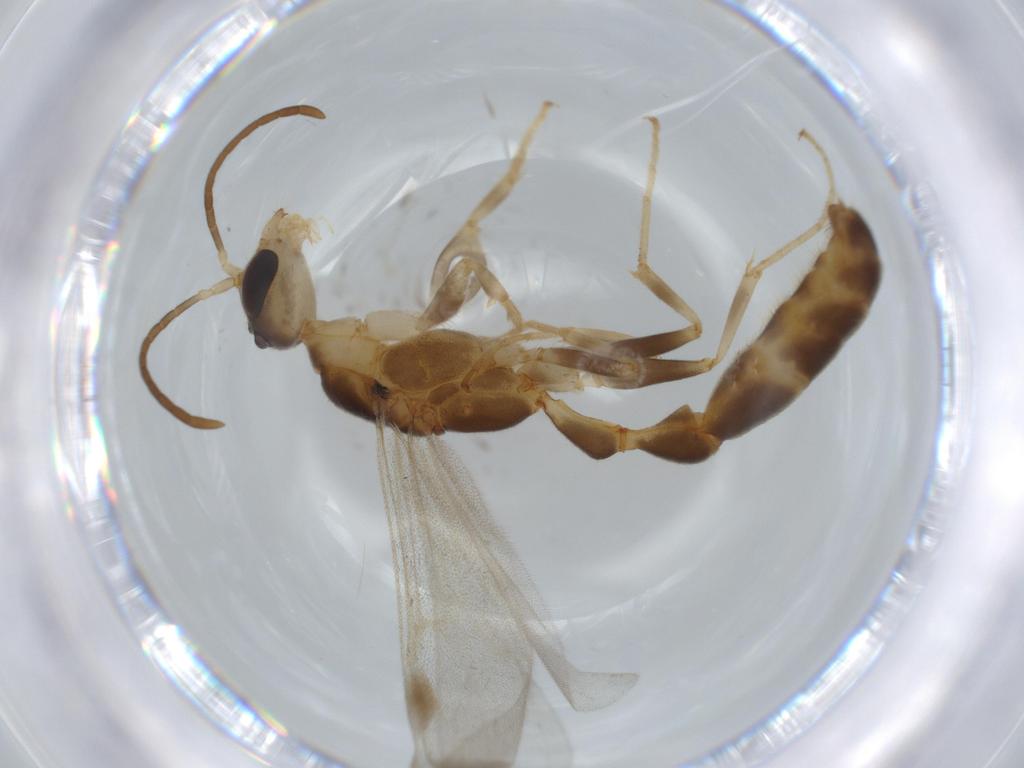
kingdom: Animalia
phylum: Arthropoda
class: Insecta
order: Hymenoptera
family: Formicidae
